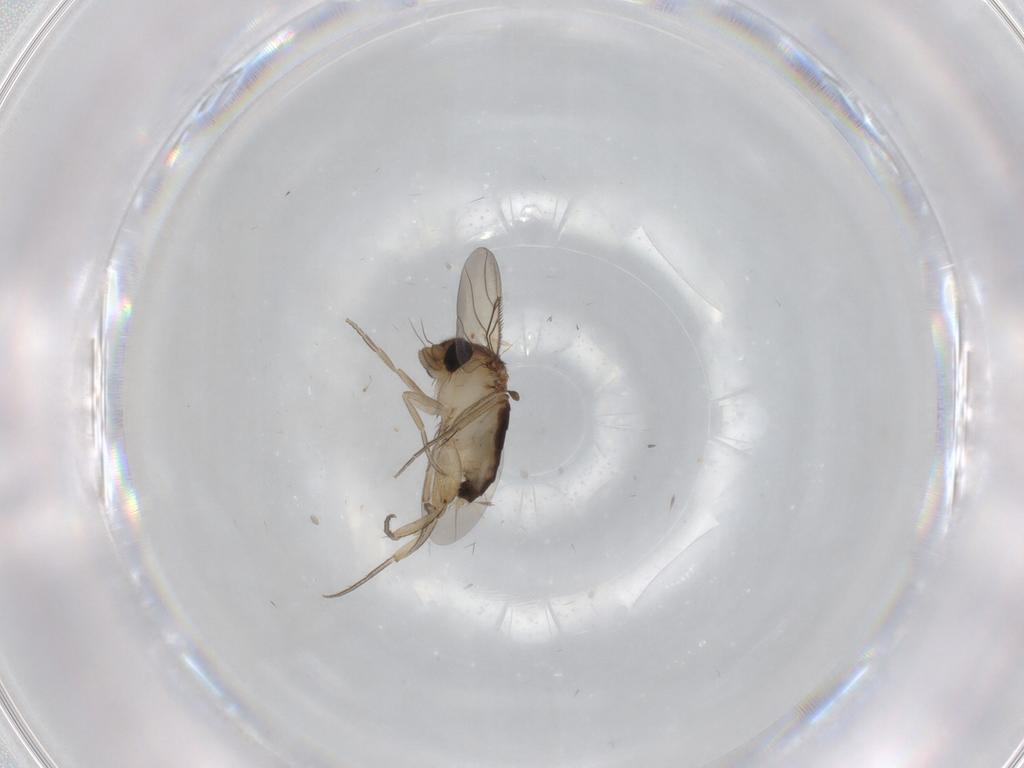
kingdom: Animalia
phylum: Arthropoda
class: Insecta
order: Diptera
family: Phoridae
